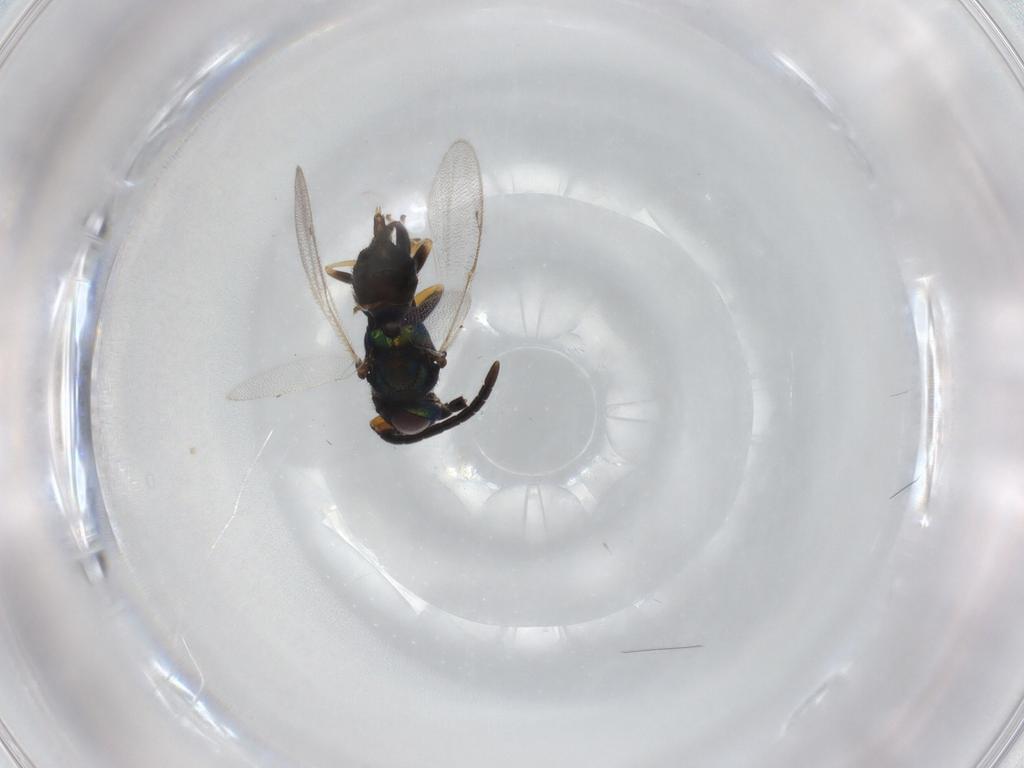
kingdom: Animalia
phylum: Arthropoda
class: Insecta
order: Hymenoptera
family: Eupelmidae
